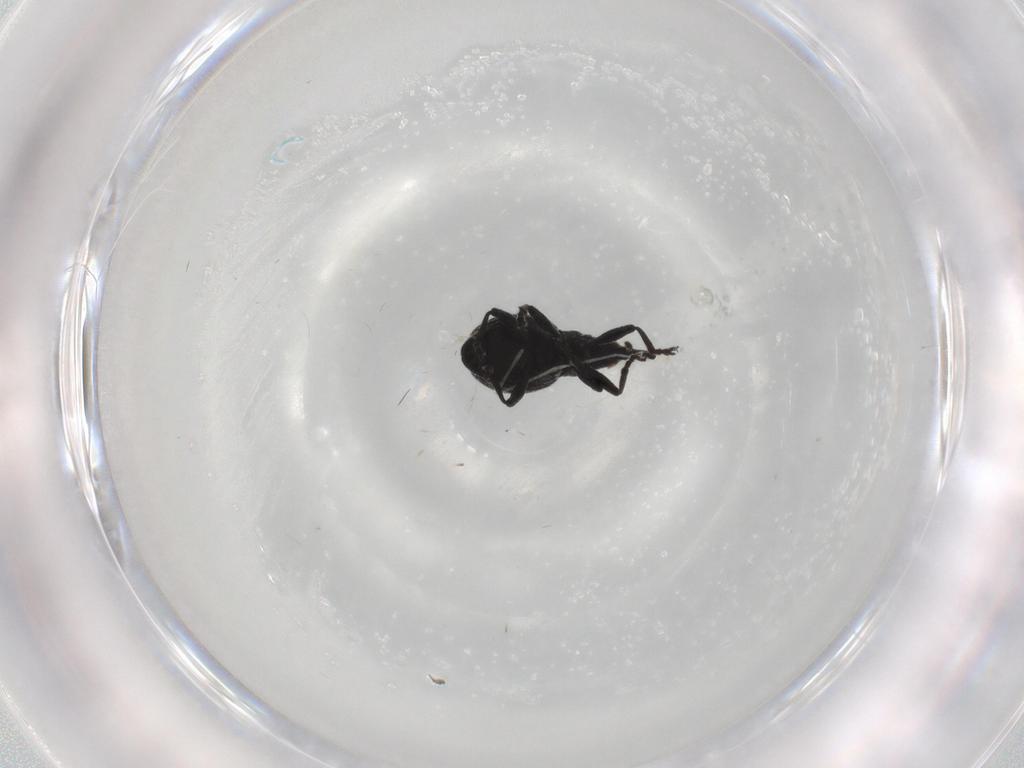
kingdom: Animalia
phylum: Arthropoda
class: Insecta
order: Coleoptera
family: Brentidae
